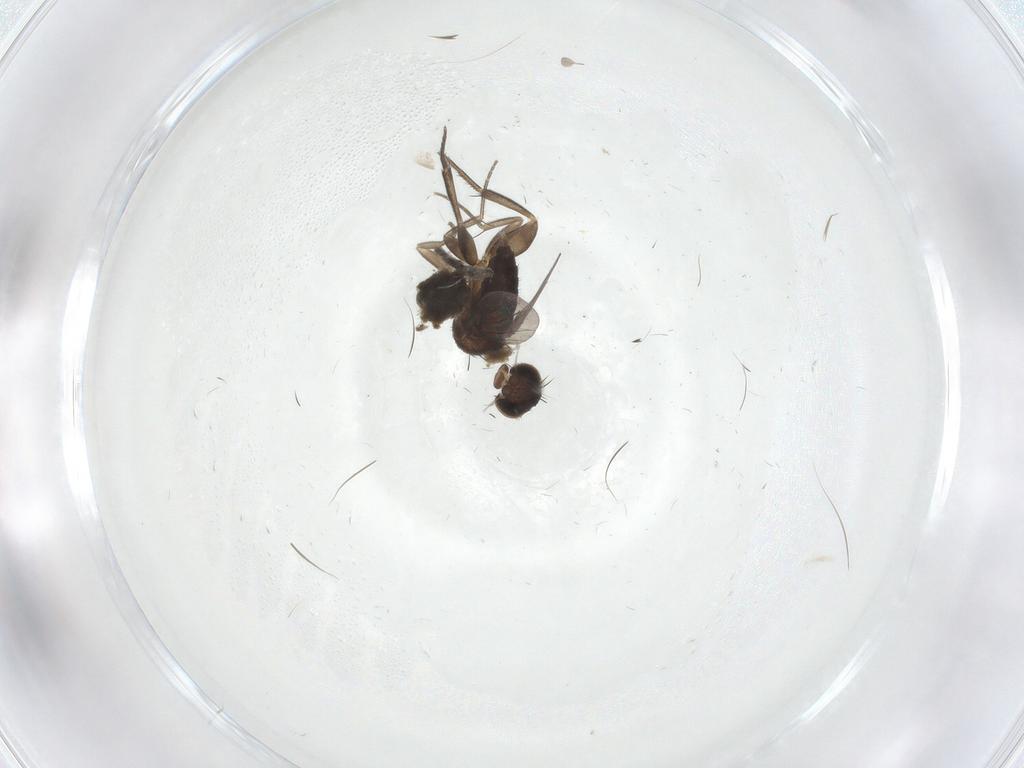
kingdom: Animalia
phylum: Arthropoda
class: Insecta
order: Diptera
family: Phoridae
